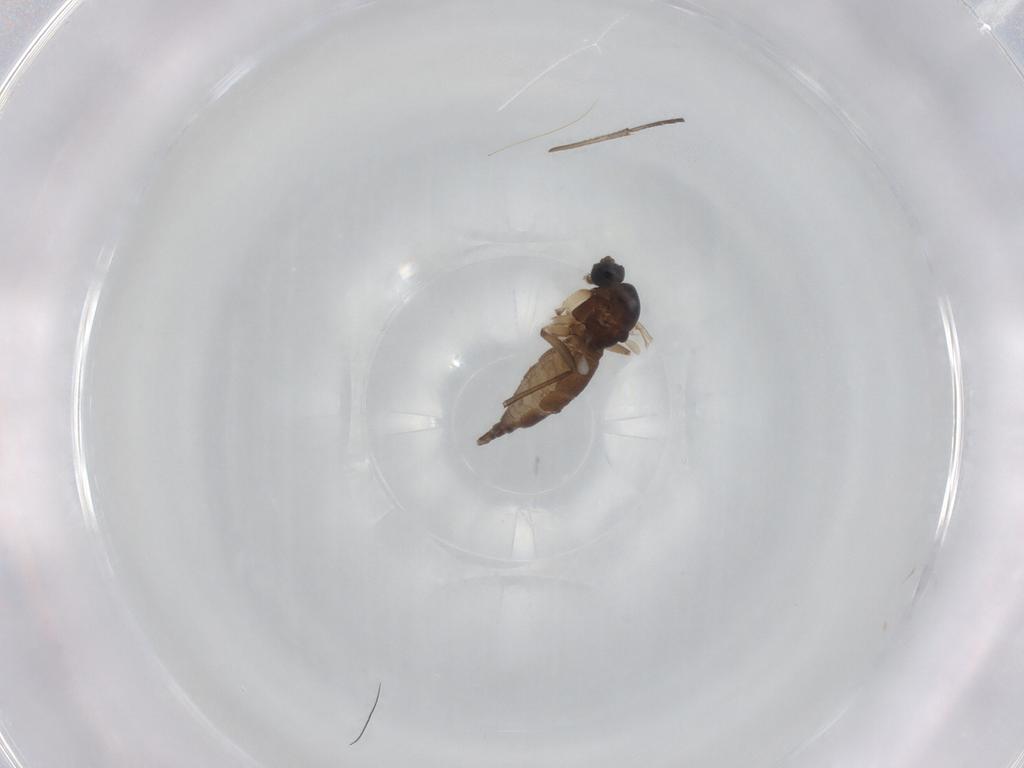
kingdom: Animalia
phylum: Arthropoda
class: Insecta
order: Diptera
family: Sciaridae
